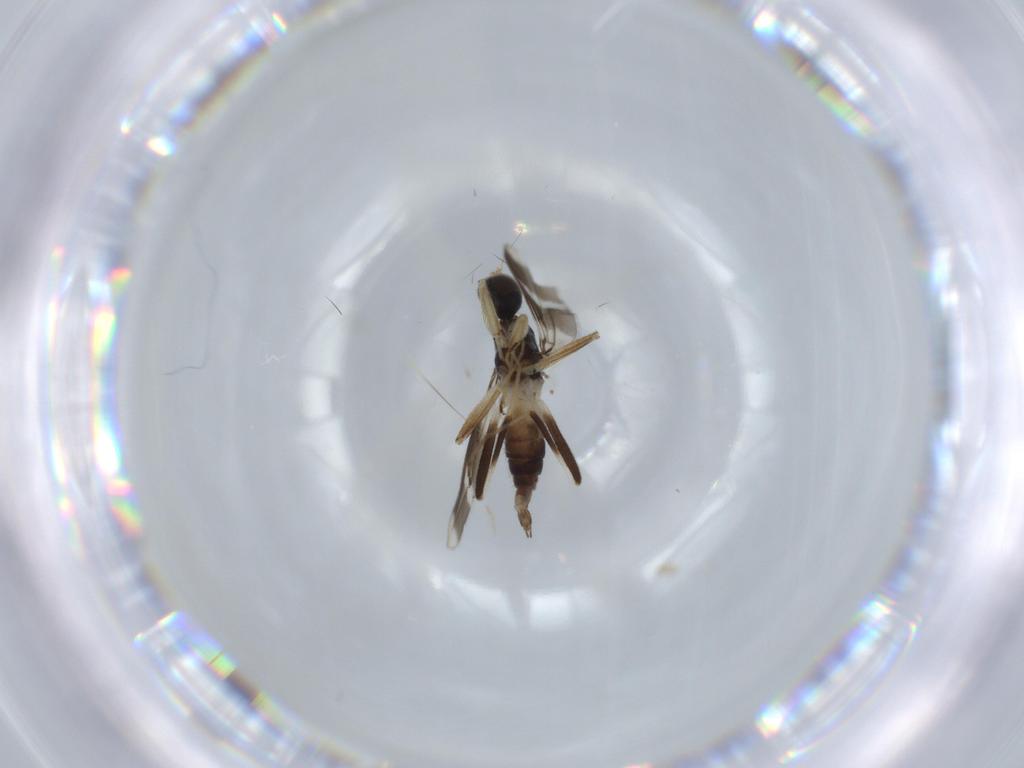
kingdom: Animalia
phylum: Arthropoda
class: Insecta
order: Diptera
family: Hybotidae
